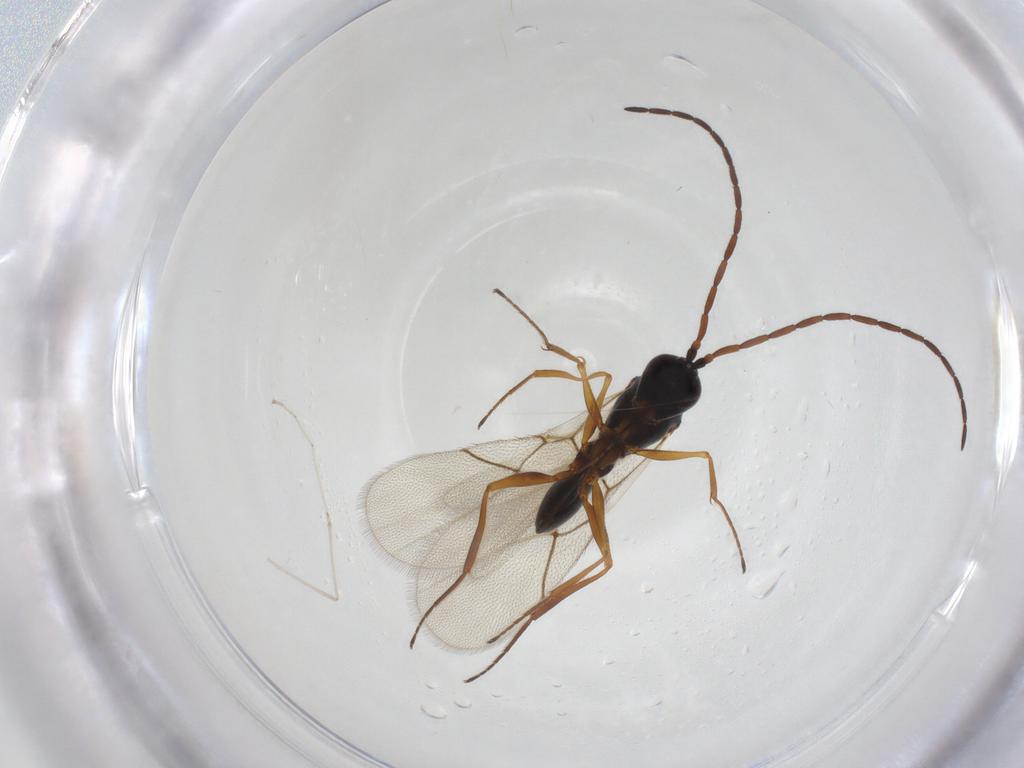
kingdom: Animalia
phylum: Arthropoda
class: Insecta
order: Hymenoptera
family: Figitidae
